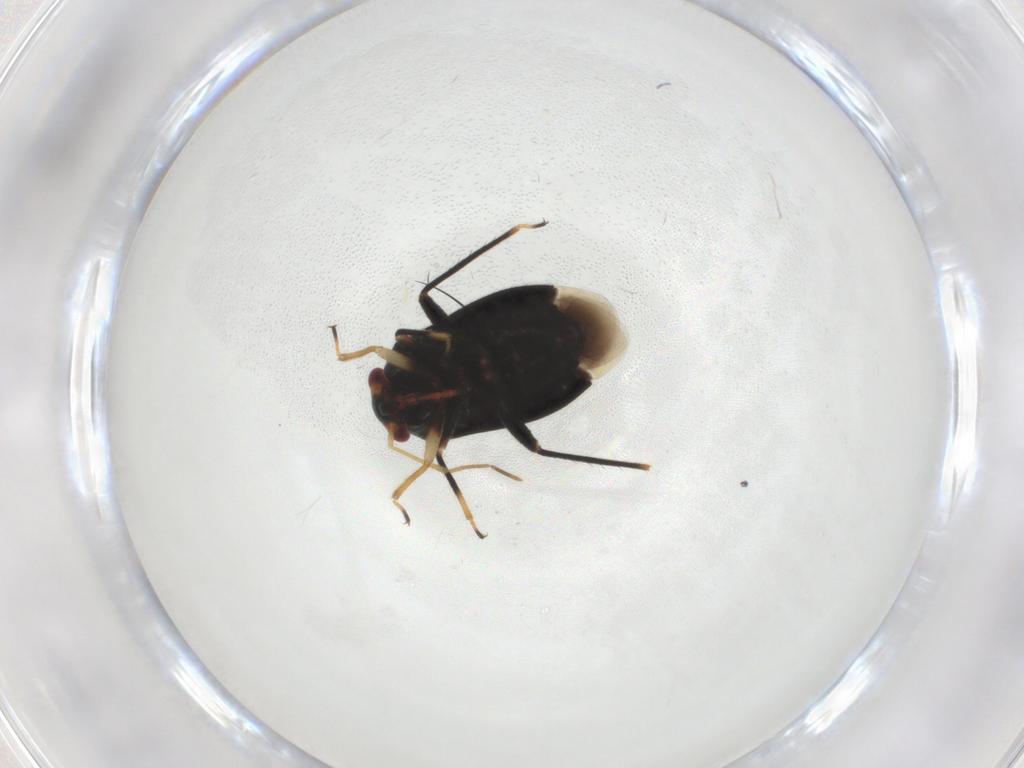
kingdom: Animalia
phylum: Arthropoda
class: Insecta
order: Hemiptera
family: Miridae
